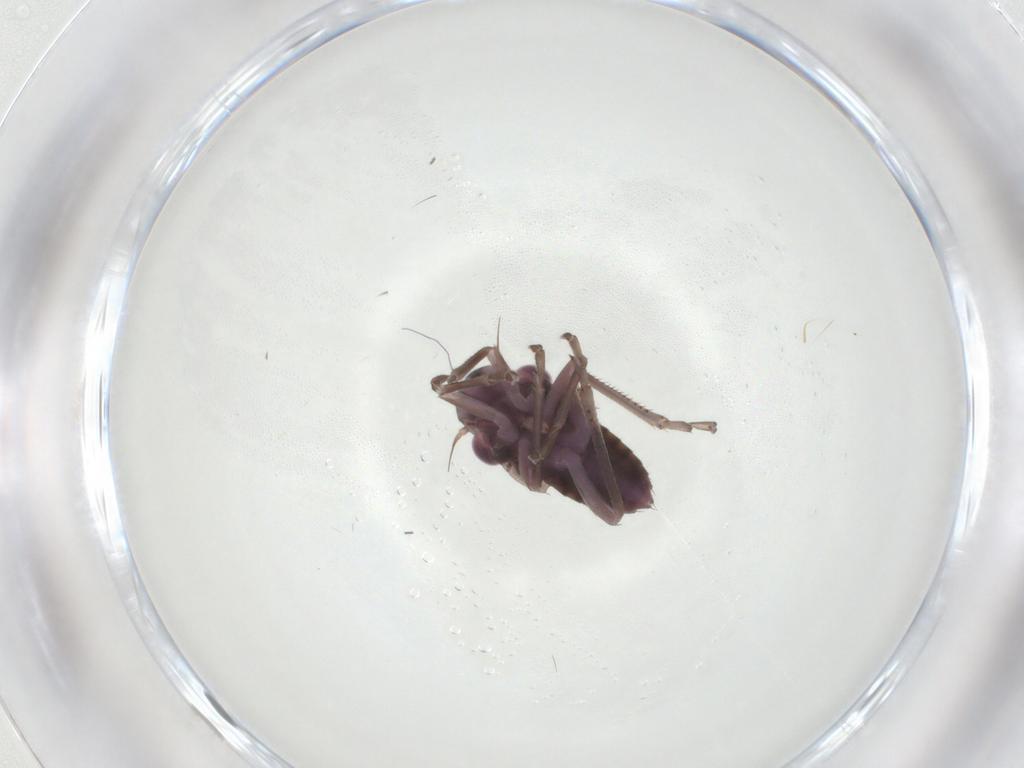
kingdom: Animalia
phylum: Arthropoda
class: Insecta
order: Hemiptera
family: Cicadellidae
